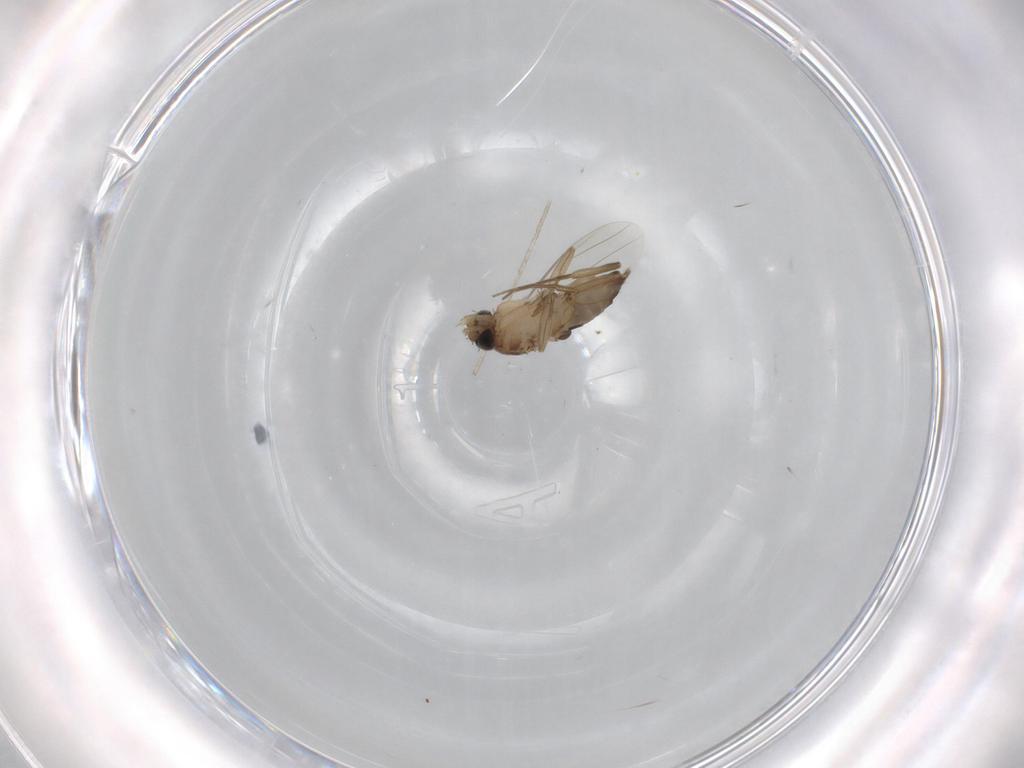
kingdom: Animalia
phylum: Arthropoda
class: Insecta
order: Diptera
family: Phoridae
